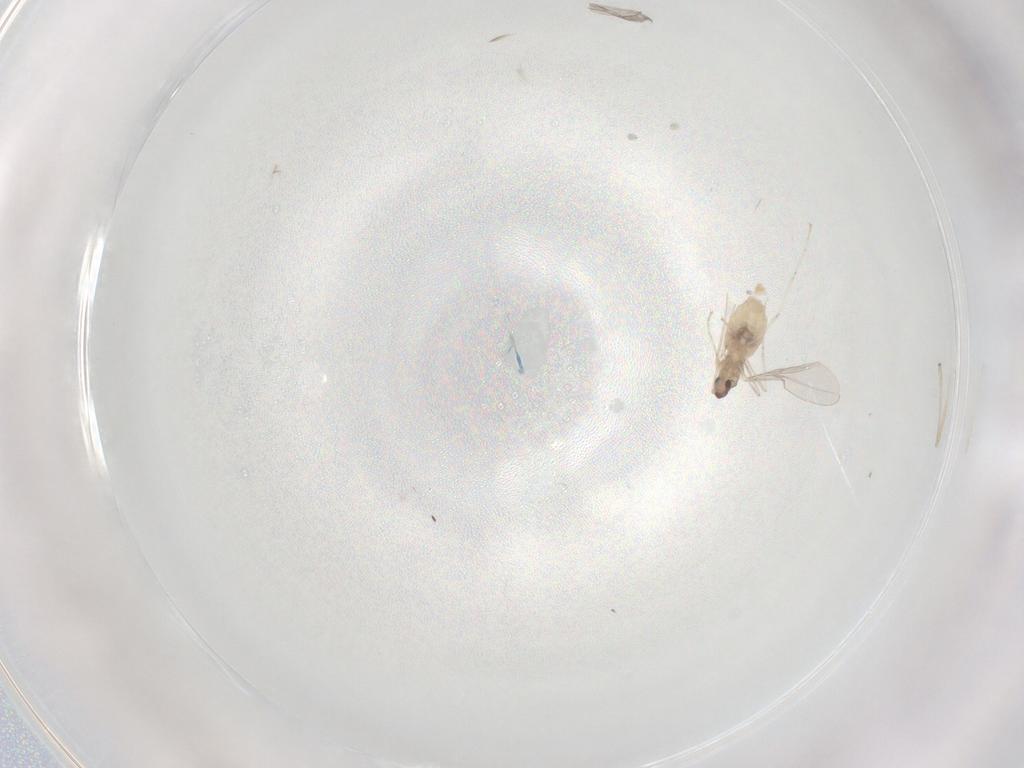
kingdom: Animalia
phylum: Arthropoda
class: Insecta
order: Diptera
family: Cecidomyiidae
